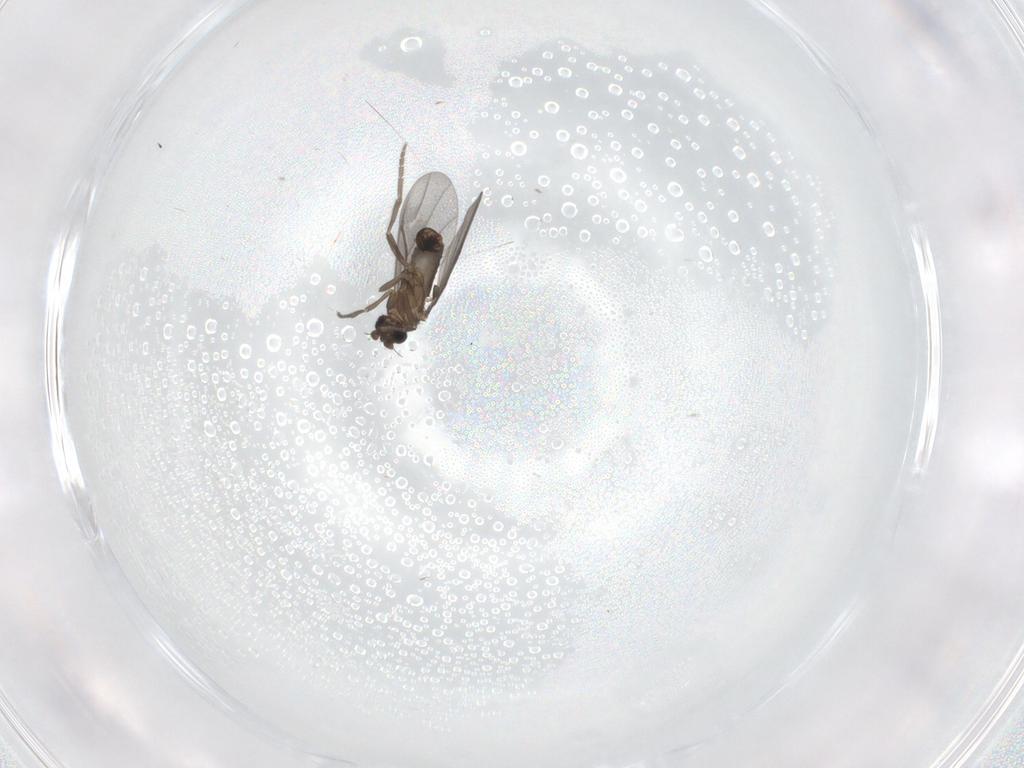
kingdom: Animalia
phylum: Arthropoda
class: Insecta
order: Diptera
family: Phoridae
